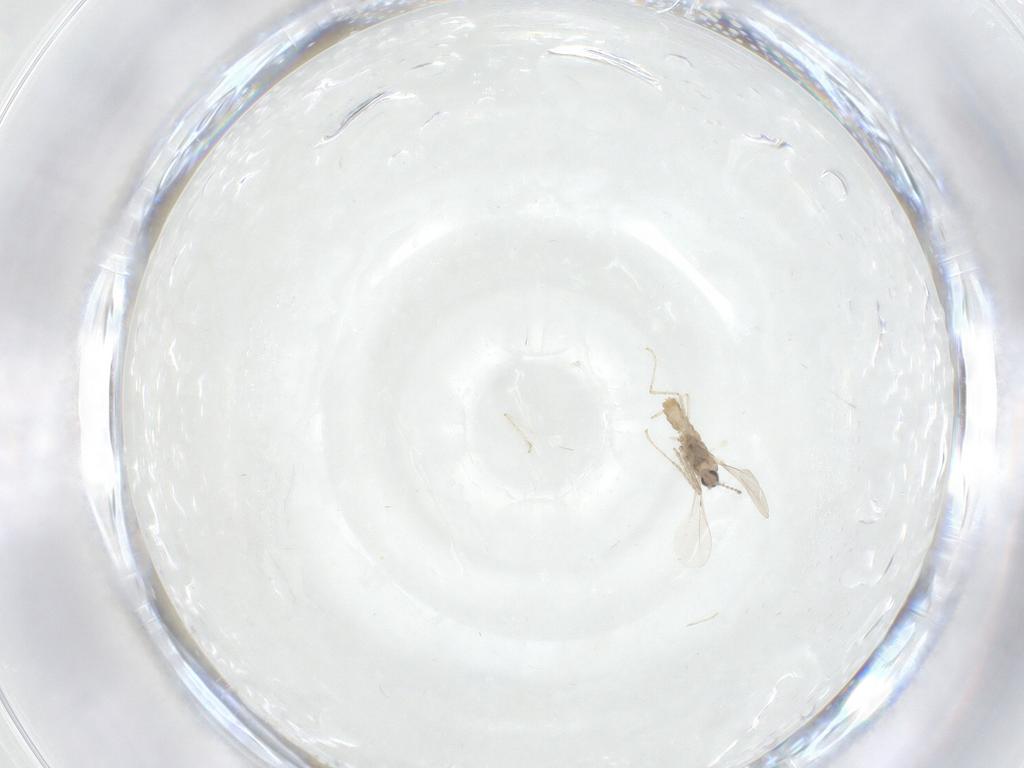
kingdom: Animalia
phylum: Arthropoda
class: Insecta
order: Diptera
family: Cecidomyiidae
